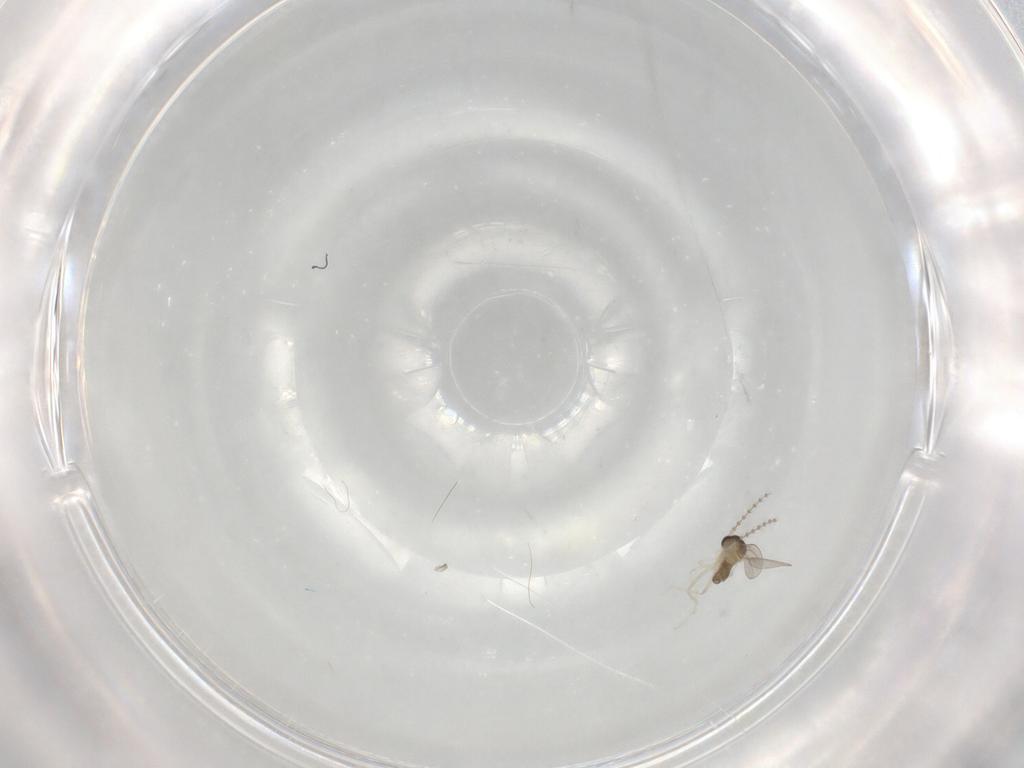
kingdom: Animalia
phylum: Arthropoda
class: Insecta
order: Diptera
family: Cecidomyiidae
